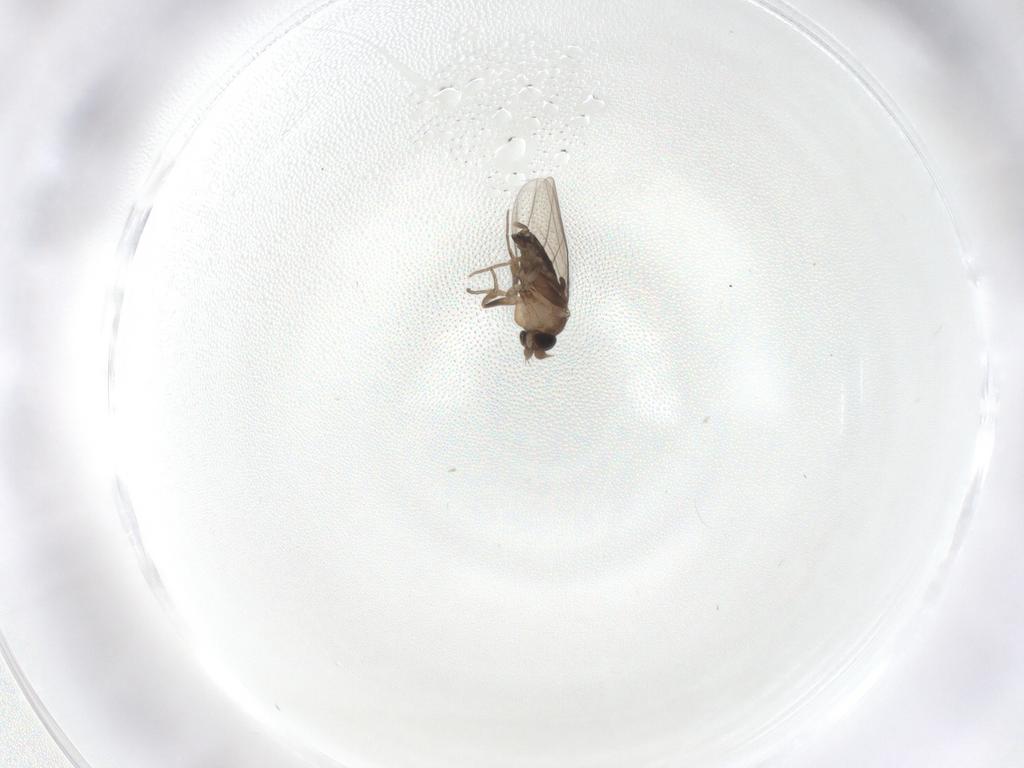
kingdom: Animalia
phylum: Arthropoda
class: Insecta
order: Diptera
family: Phoridae
